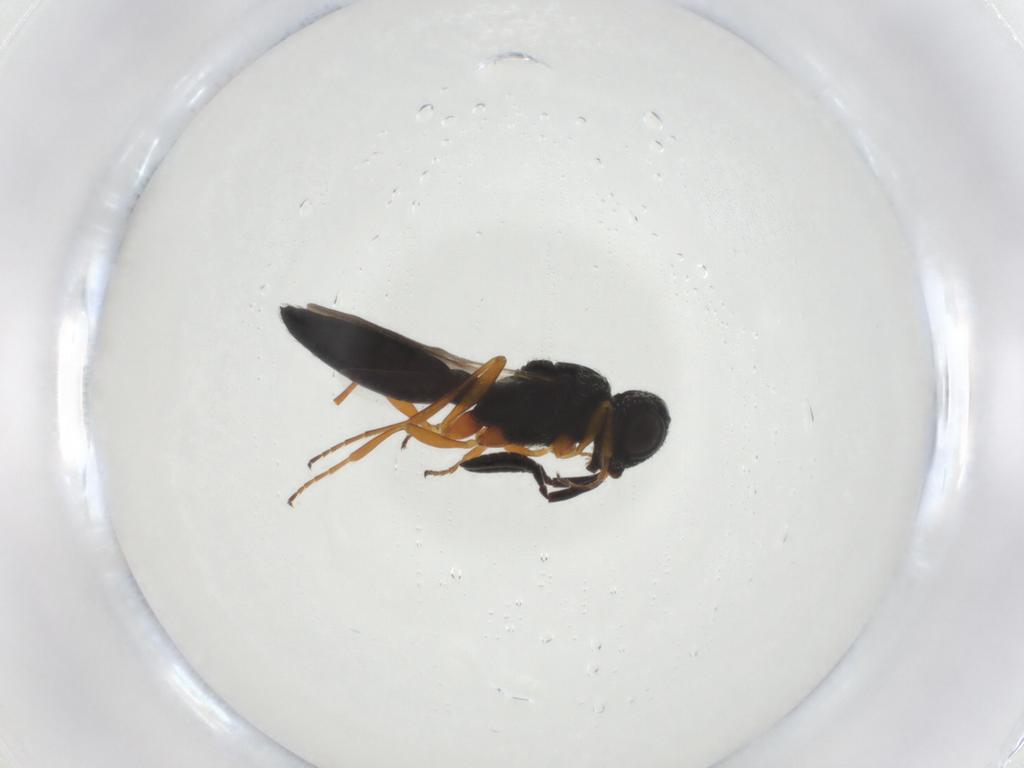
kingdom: Animalia
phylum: Arthropoda
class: Insecta
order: Hymenoptera
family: Scelionidae
